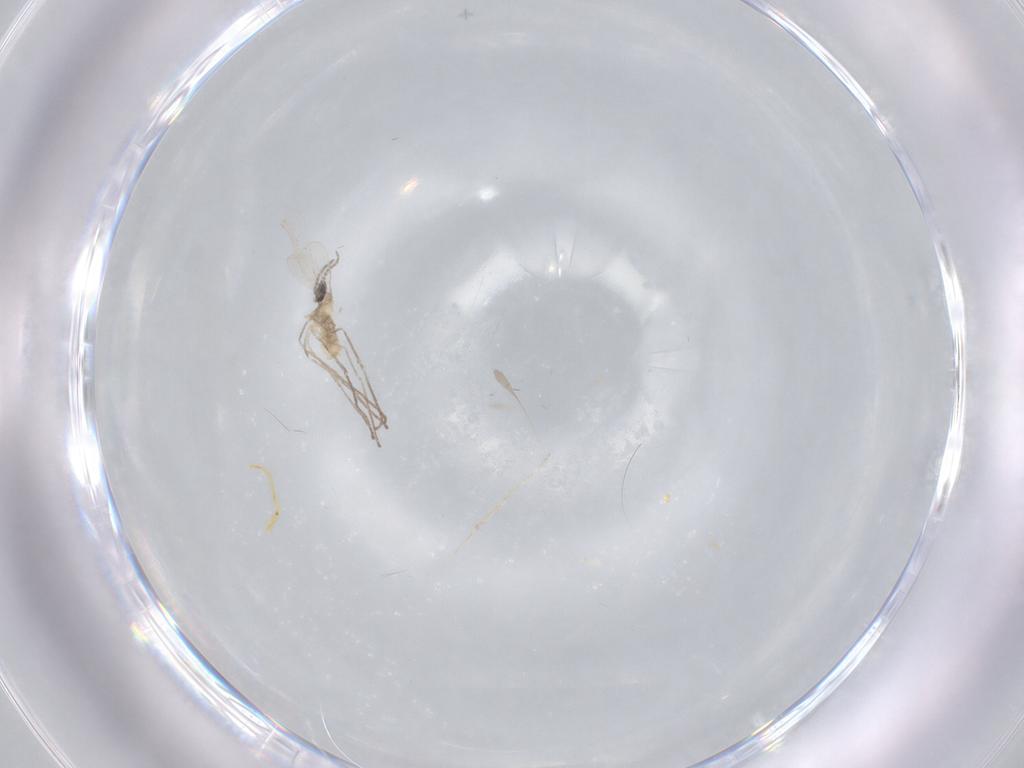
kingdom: Animalia
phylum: Arthropoda
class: Insecta
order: Diptera
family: Cecidomyiidae
